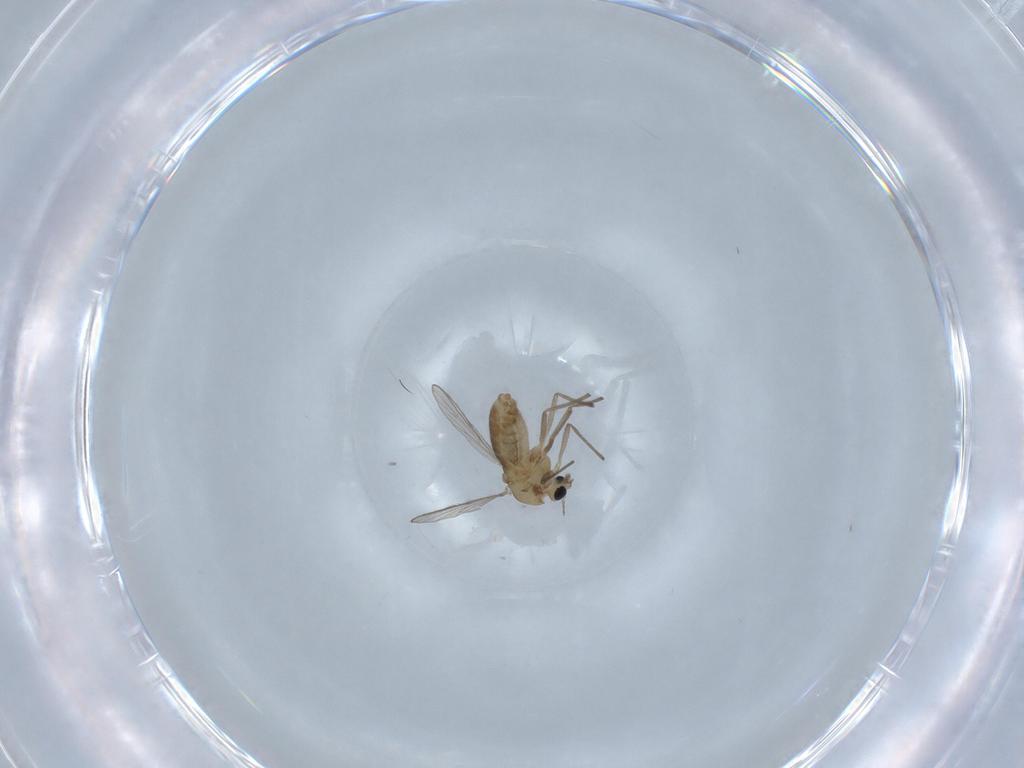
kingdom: Animalia
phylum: Arthropoda
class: Insecta
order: Diptera
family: Chironomidae
